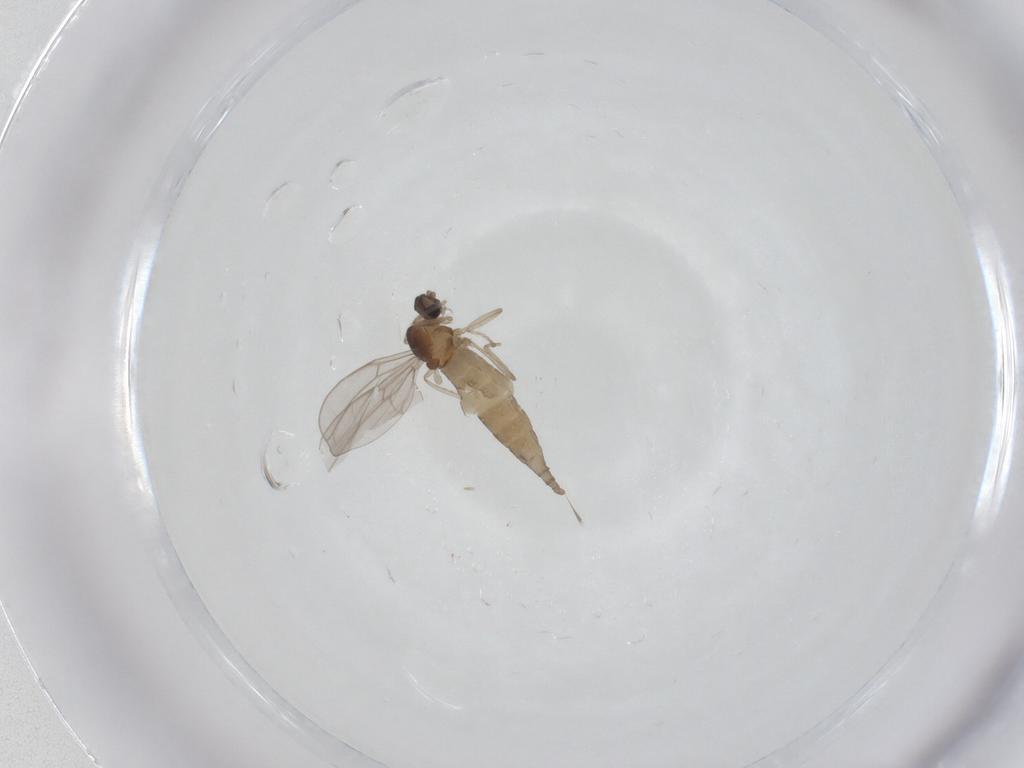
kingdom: Animalia
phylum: Arthropoda
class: Insecta
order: Diptera
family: Cecidomyiidae
